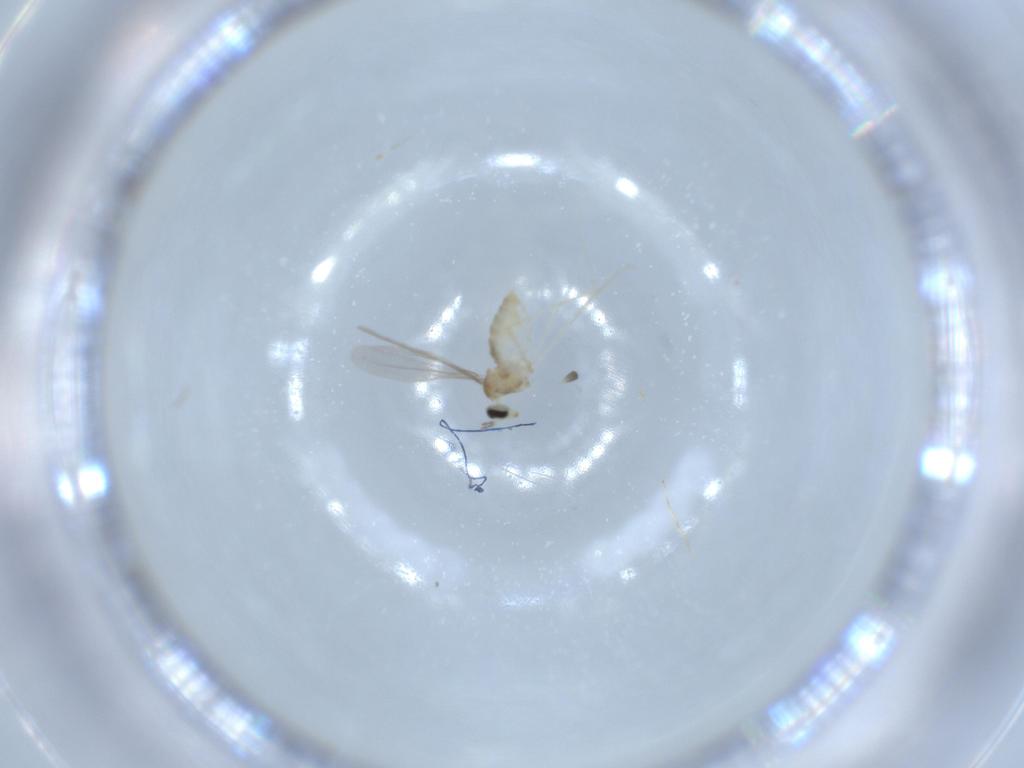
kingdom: Animalia
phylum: Arthropoda
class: Insecta
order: Diptera
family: Cecidomyiidae
